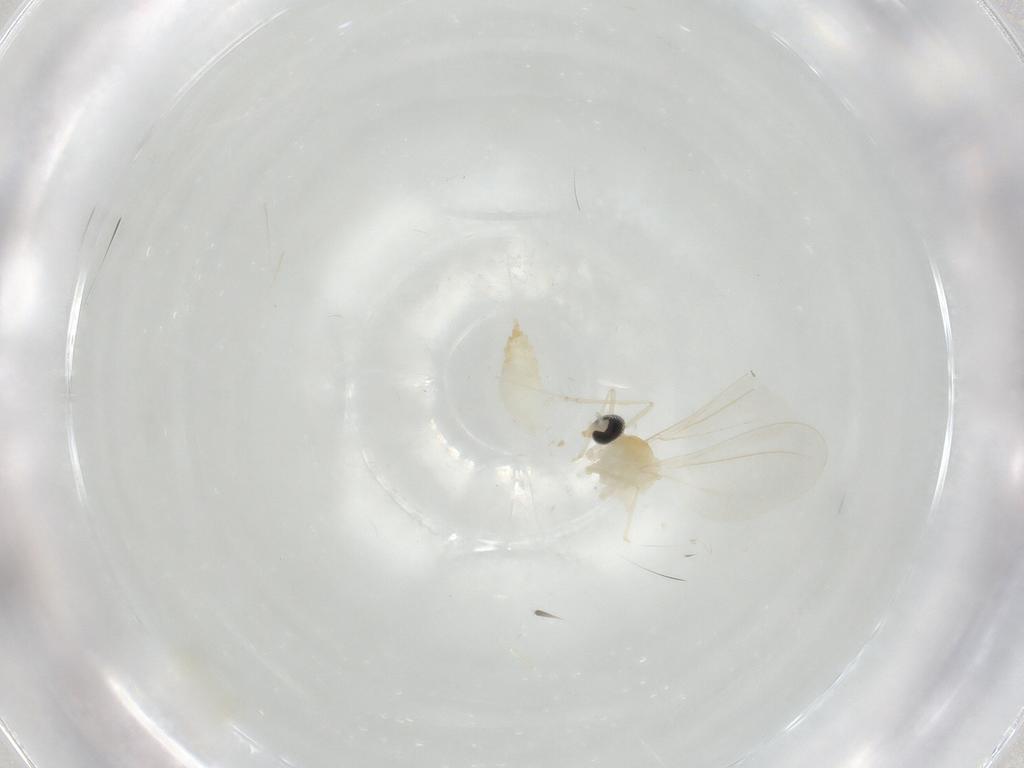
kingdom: Animalia
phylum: Arthropoda
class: Insecta
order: Diptera
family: Cecidomyiidae
